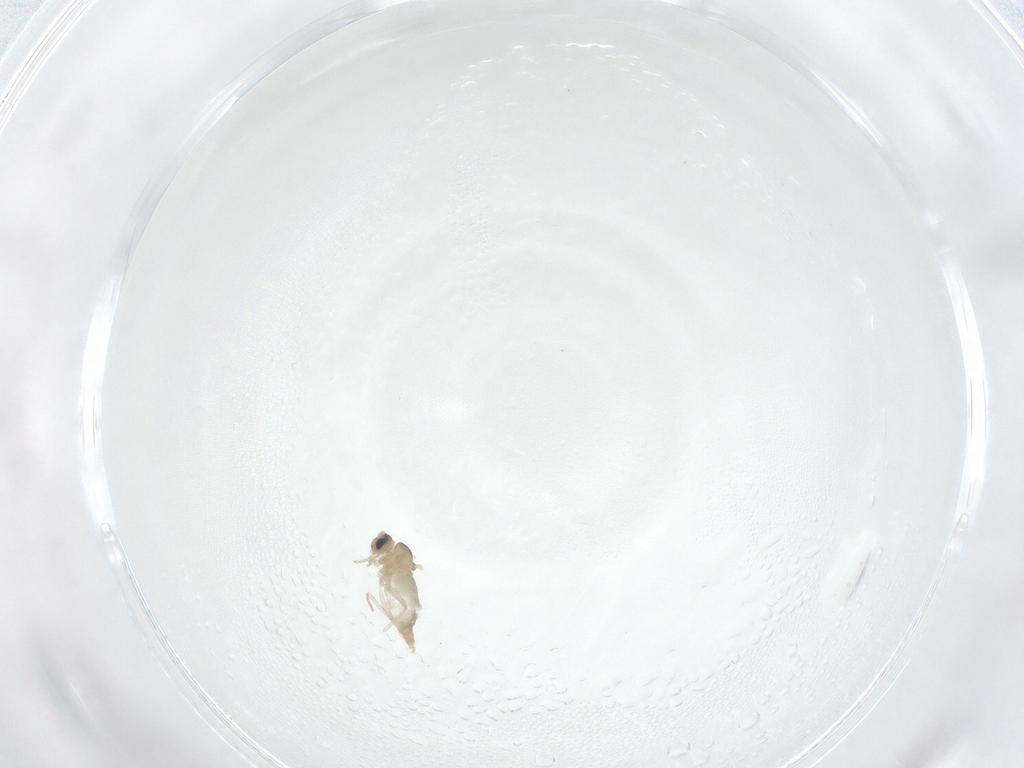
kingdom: Animalia
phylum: Arthropoda
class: Insecta
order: Diptera
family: Cecidomyiidae
